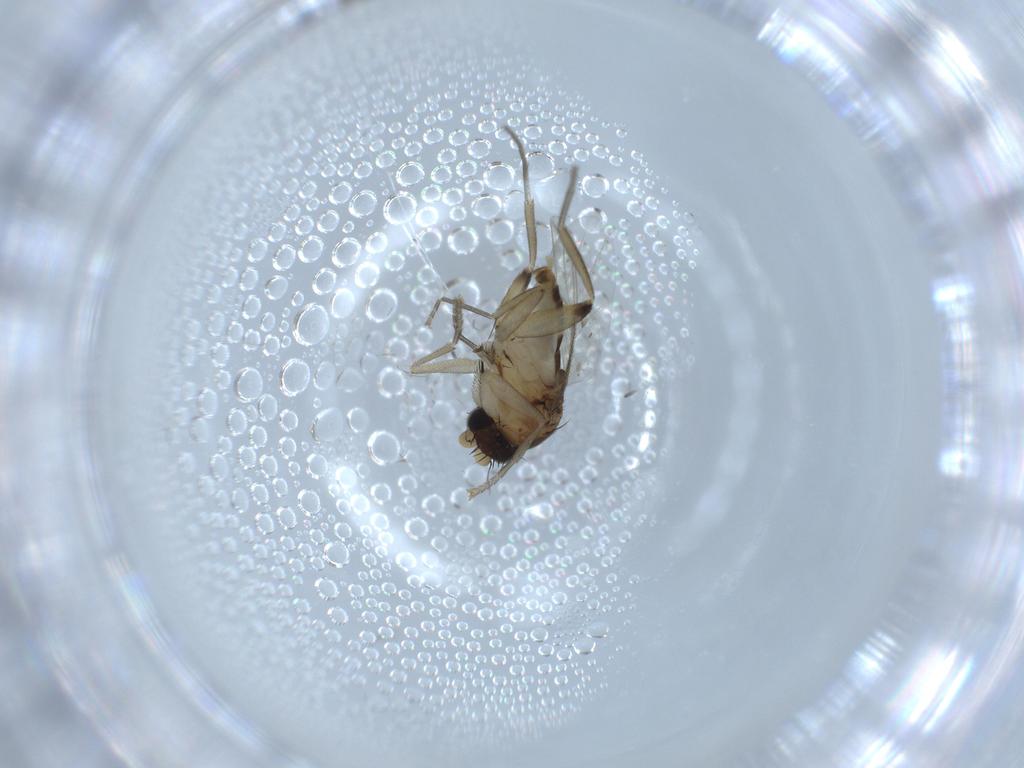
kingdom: Animalia
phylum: Arthropoda
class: Insecta
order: Diptera
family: Phoridae
